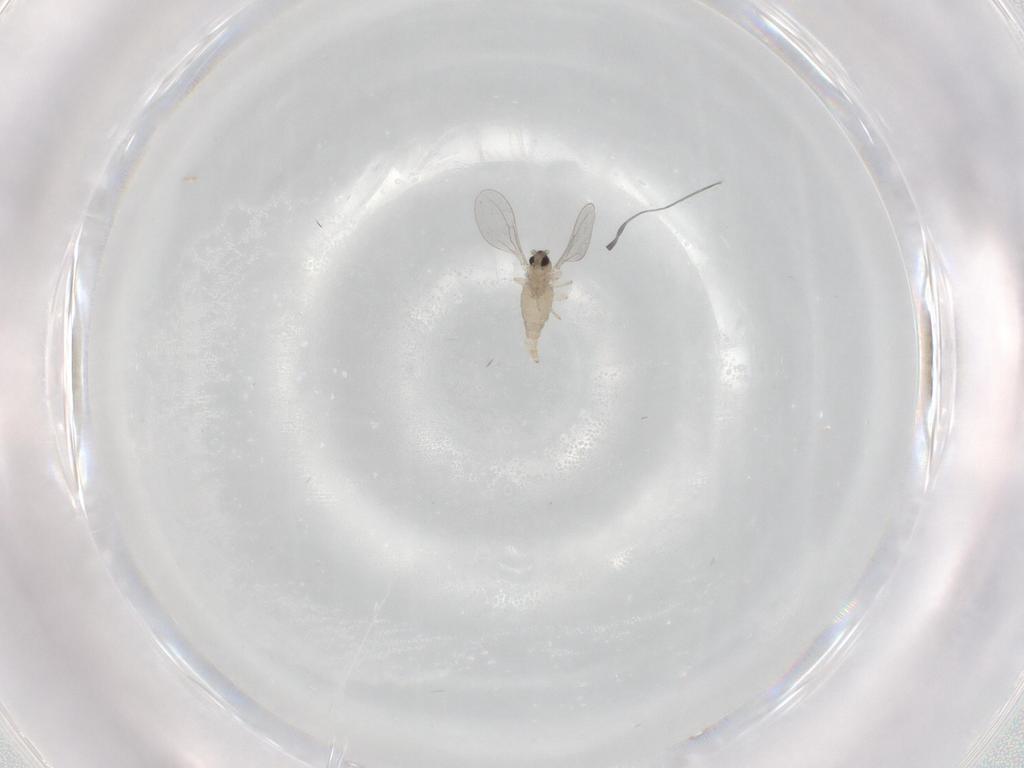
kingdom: Animalia
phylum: Arthropoda
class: Insecta
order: Diptera
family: Cecidomyiidae
